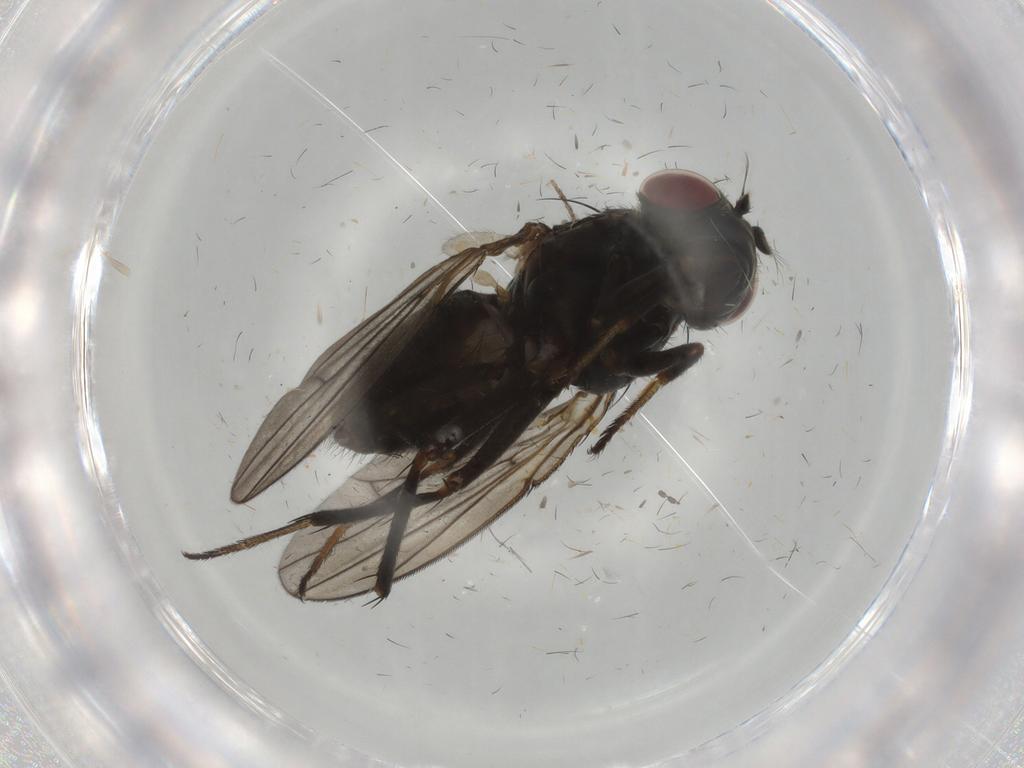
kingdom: Animalia
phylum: Arthropoda
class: Insecta
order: Diptera
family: Ephydridae
